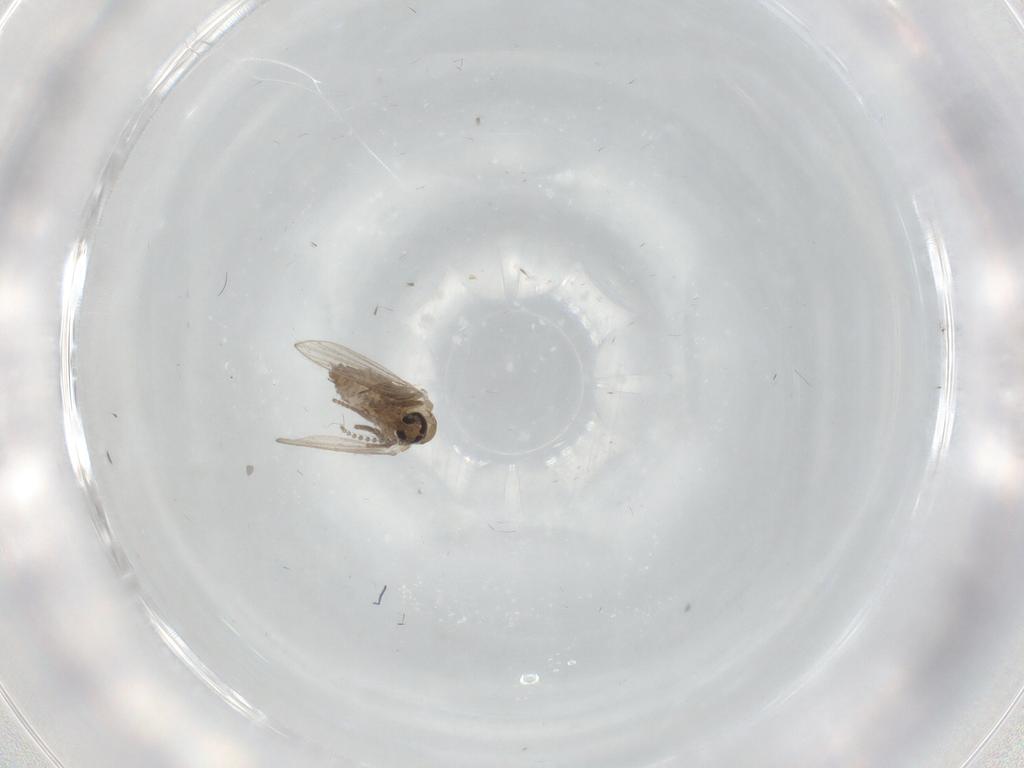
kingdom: Animalia
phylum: Arthropoda
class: Insecta
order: Diptera
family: Psychodidae
